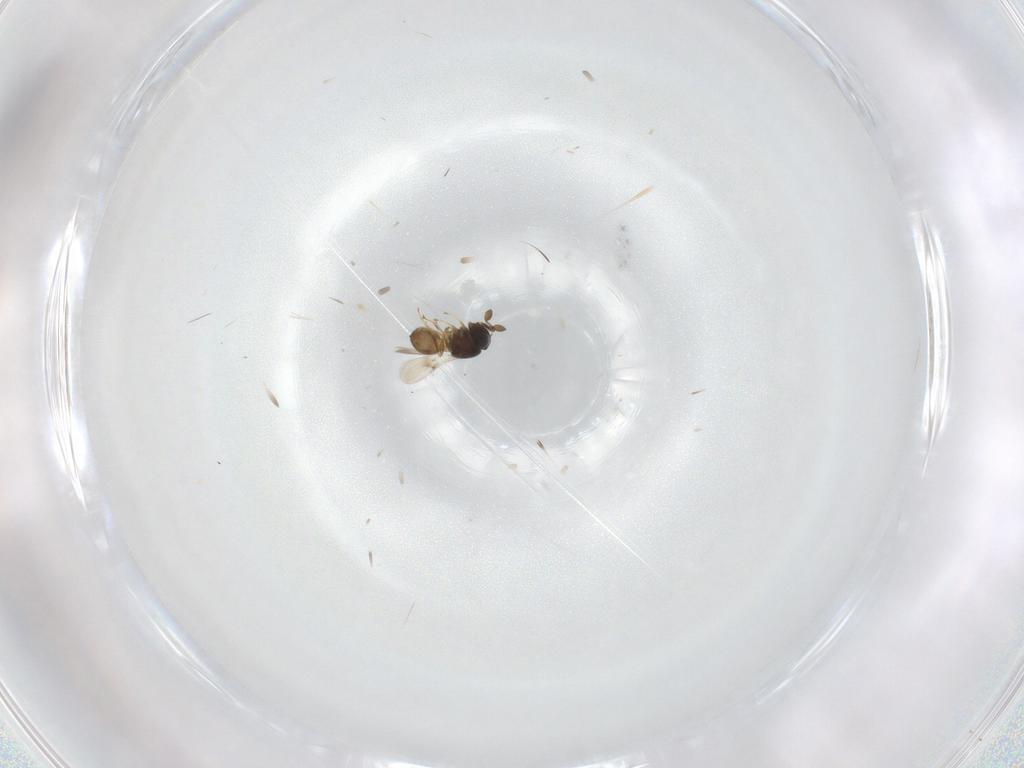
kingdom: Animalia
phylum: Arthropoda
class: Insecta
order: Hymenoptera
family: Scelionidae
